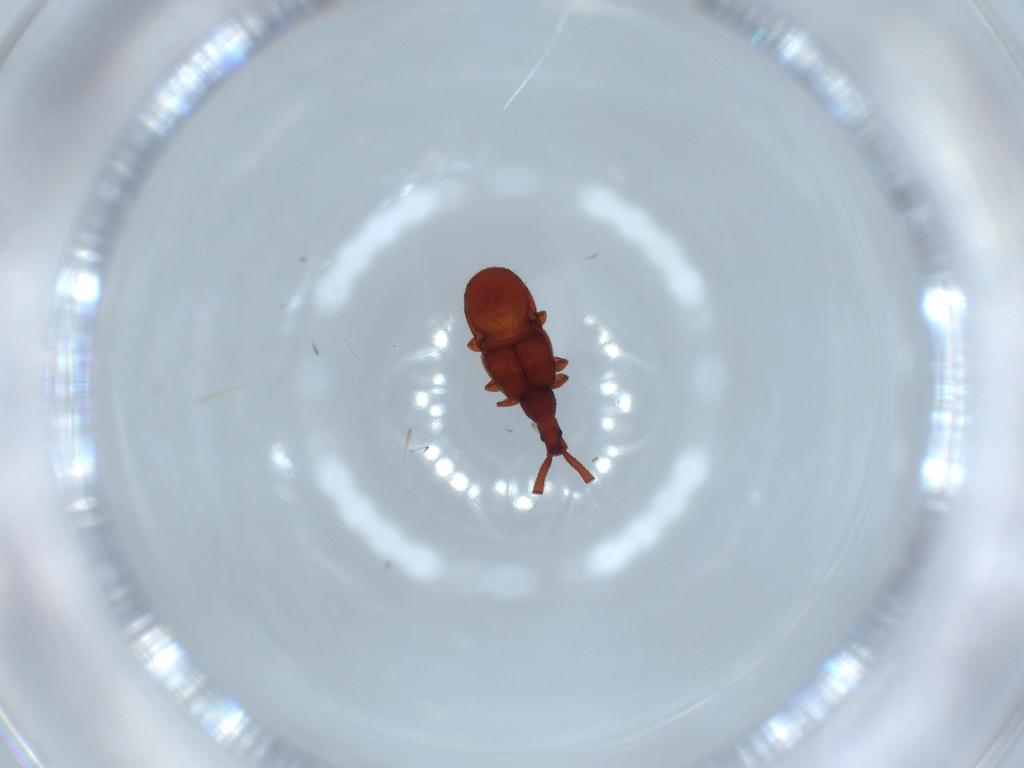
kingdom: Animalia
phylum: Arthropoda
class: Insecta
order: Coleoptera
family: Staphylinidae
